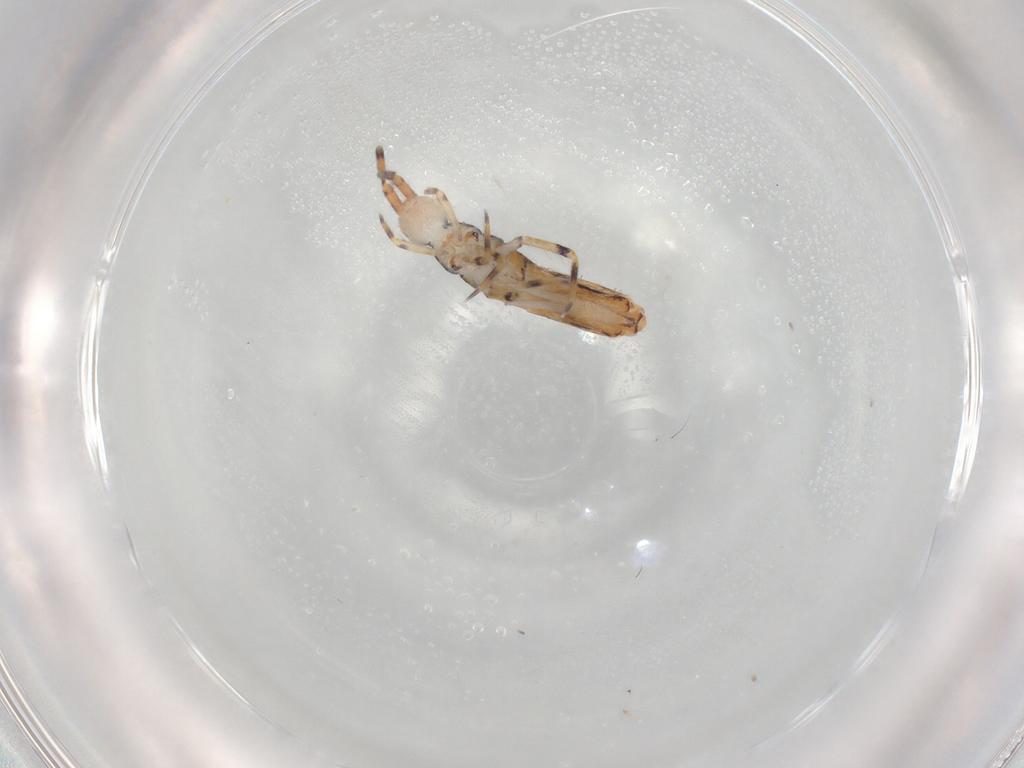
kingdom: Animalia
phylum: Arthropoda
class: Collembola
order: Entomobryomorpha
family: Entomobryidae
